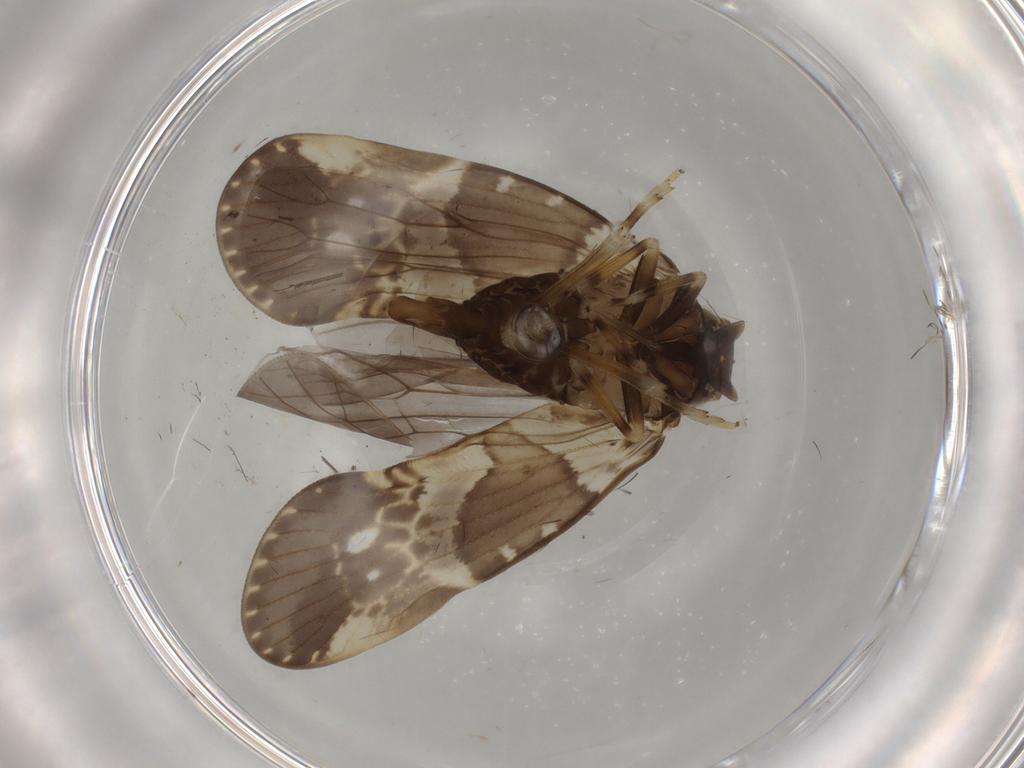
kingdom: Animalia
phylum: Arthropoda
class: Insecta
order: Hemiptera
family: Cixiidae
